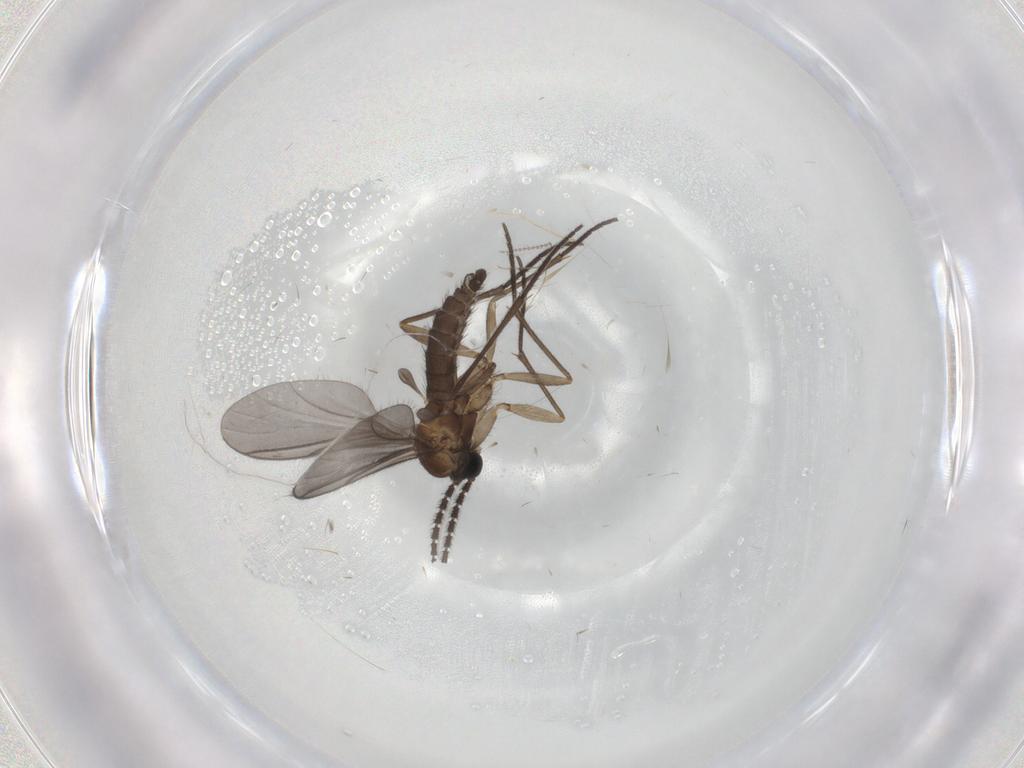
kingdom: Animalia
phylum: Arthropoda
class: Insecta
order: Diptera
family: Sciaridae
